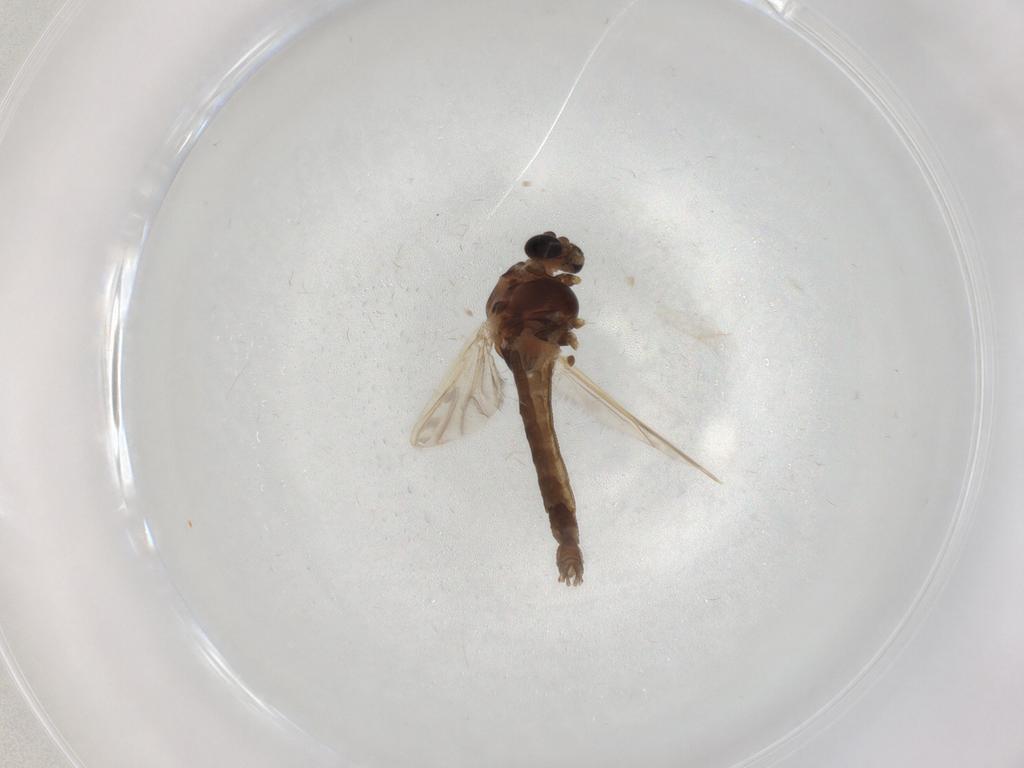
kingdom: Animalia
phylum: Arthropoda
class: Insecta
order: Diptera
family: Chironomidae
